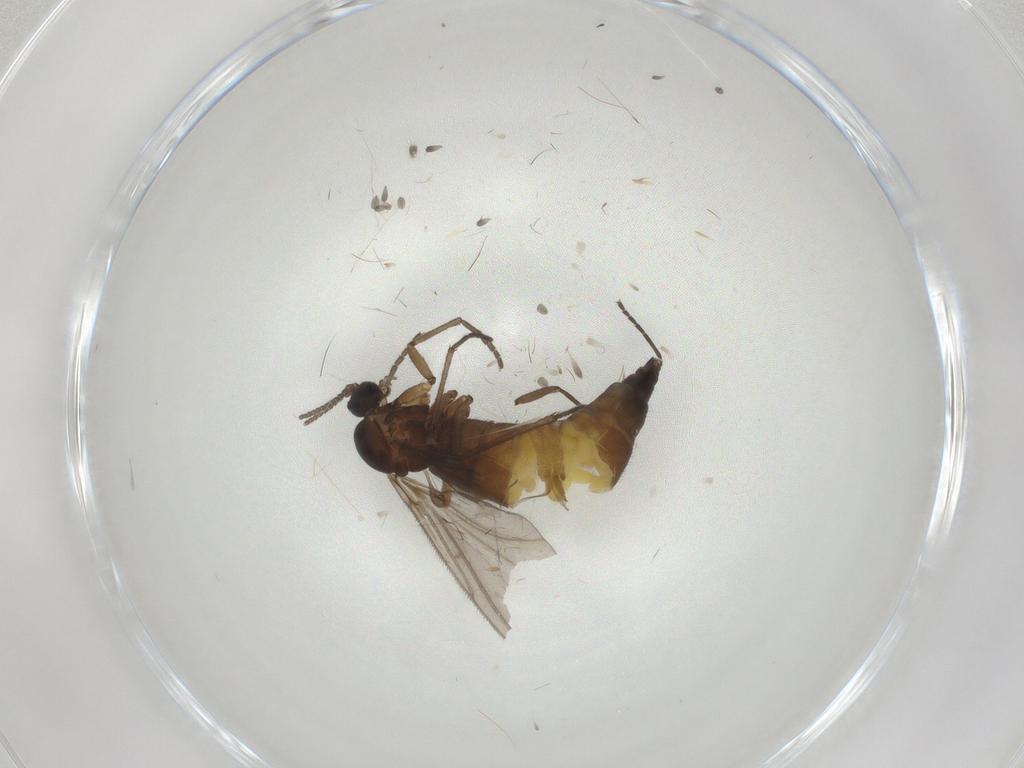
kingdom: Animalia
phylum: Arthropoda
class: Insecta
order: Diptera
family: Sciaridae
